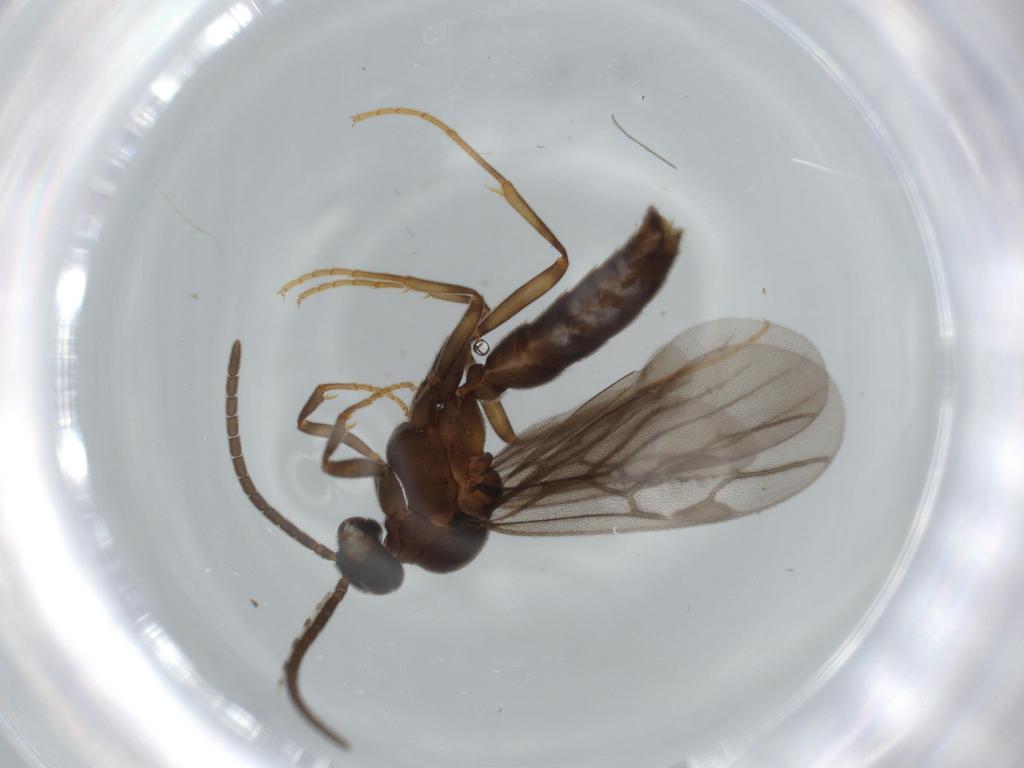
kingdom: Animalia
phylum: Arthropoda
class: Insecta
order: Hymenoptera
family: Formicidae
